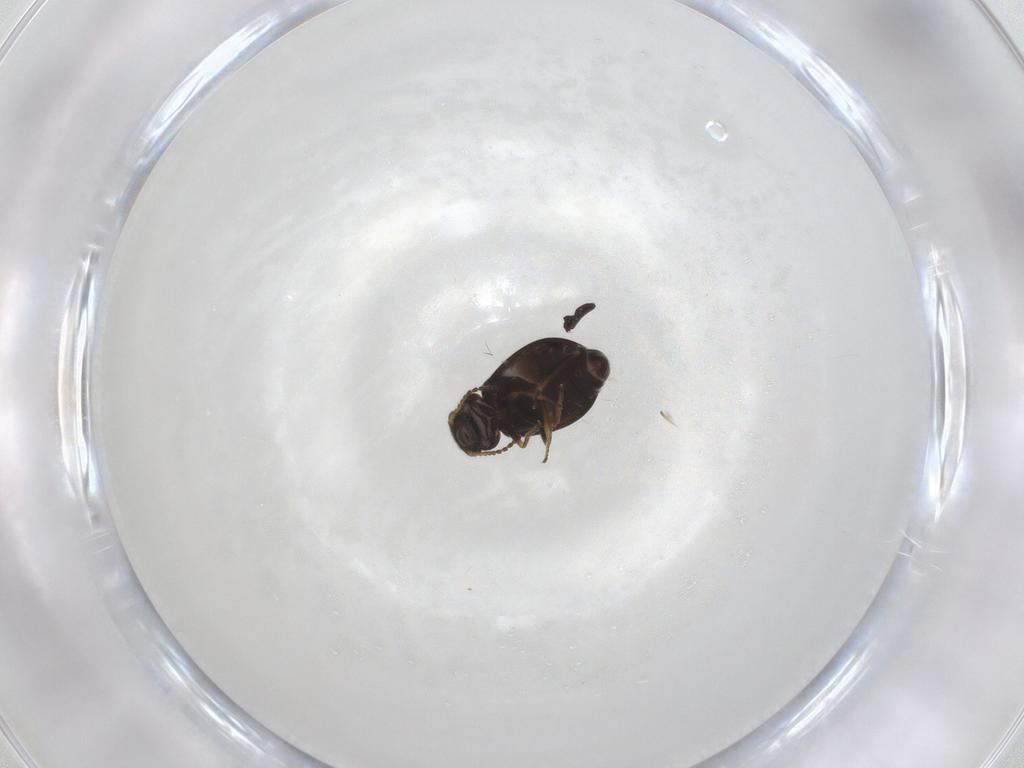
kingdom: Animalia
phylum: Arthropoda
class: Insecta
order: Coleoptera
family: Melyridae
